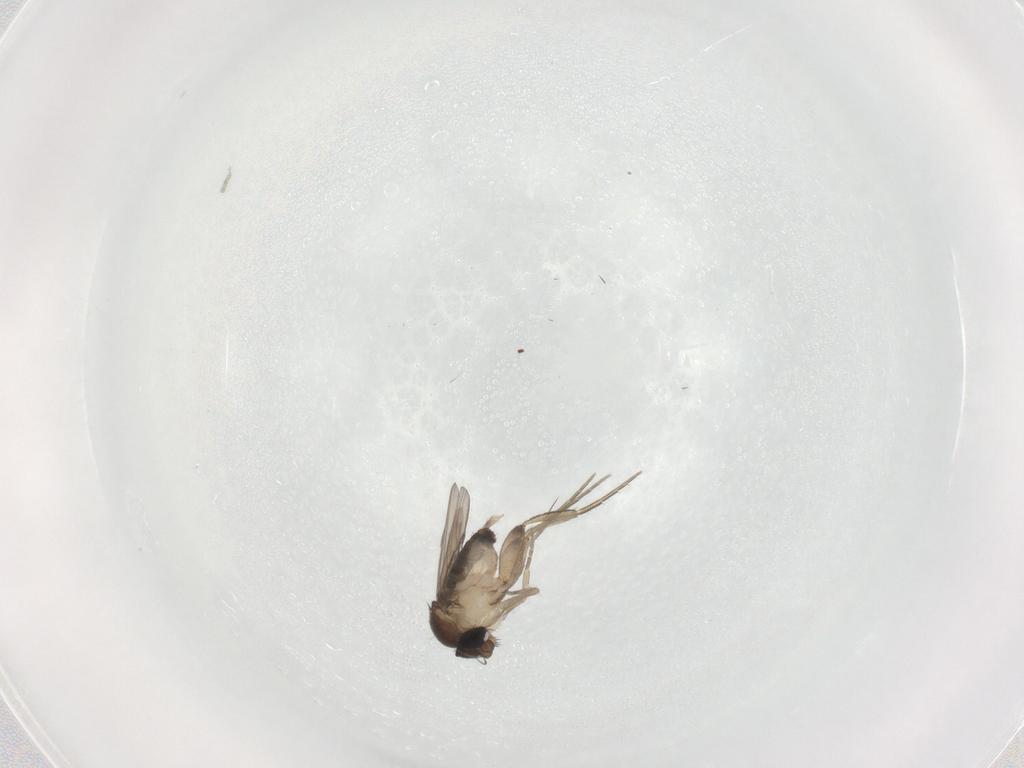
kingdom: Animalia
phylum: Arthropoda
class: Insecta
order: Diptera
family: Phoridae
